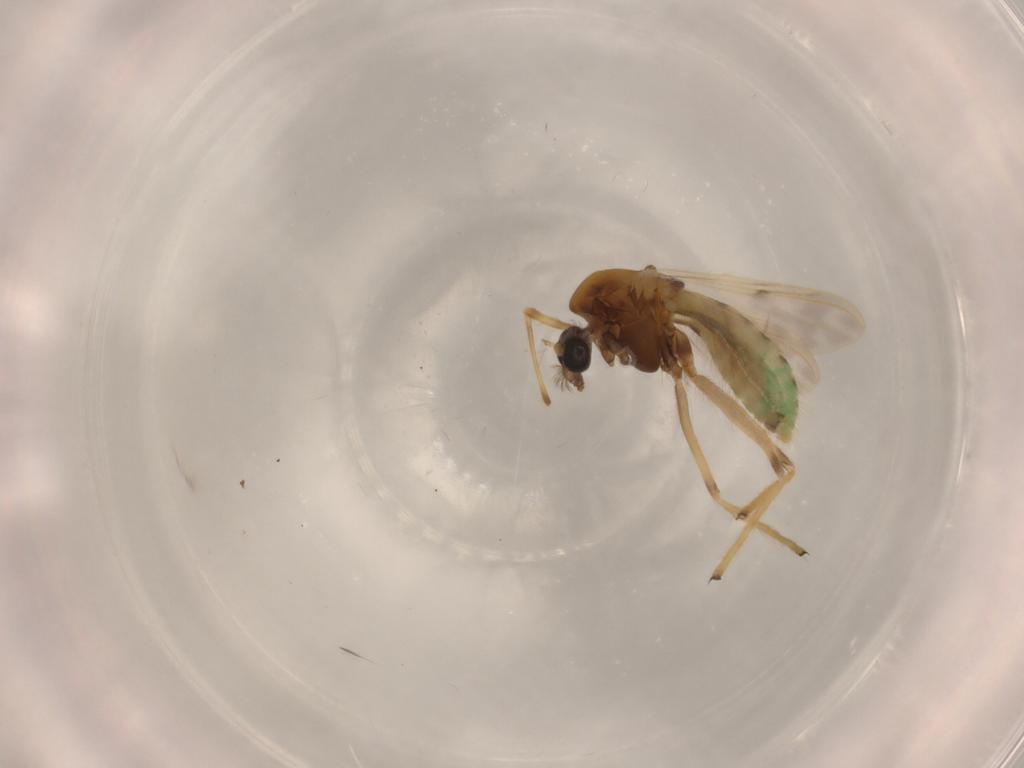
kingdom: Animalia
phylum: Arthropoda
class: Insecta
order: Diptera
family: Chironomidae
